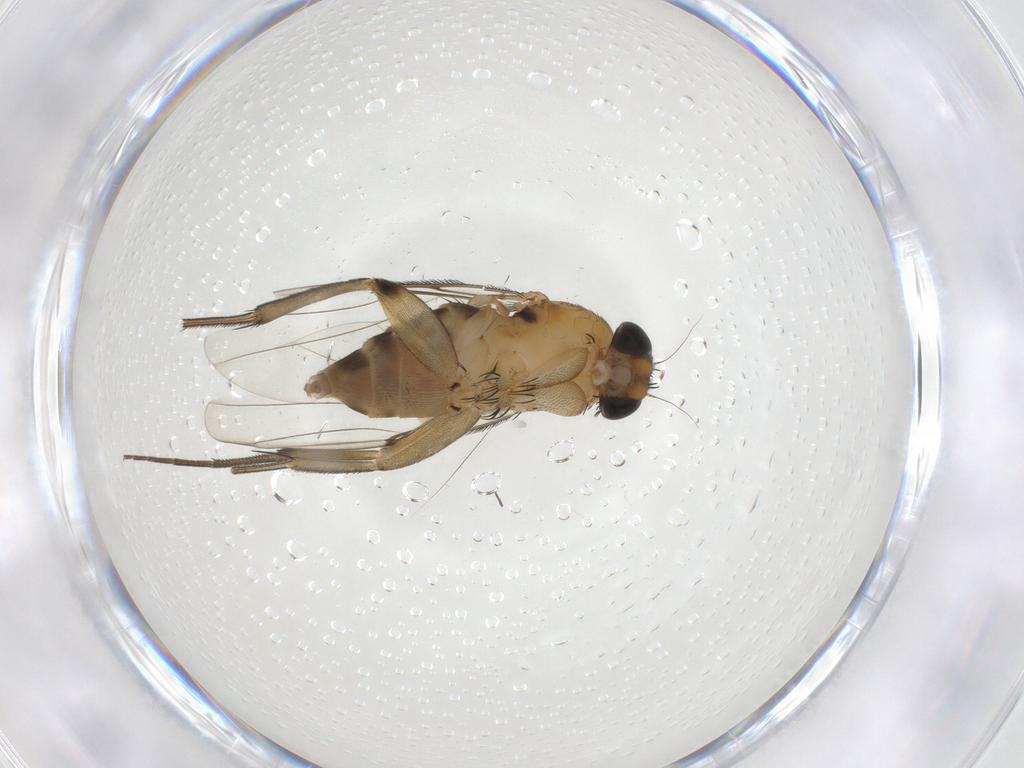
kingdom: Animalia
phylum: Arthropoda
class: Insecta
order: Diptera
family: Phoridae
